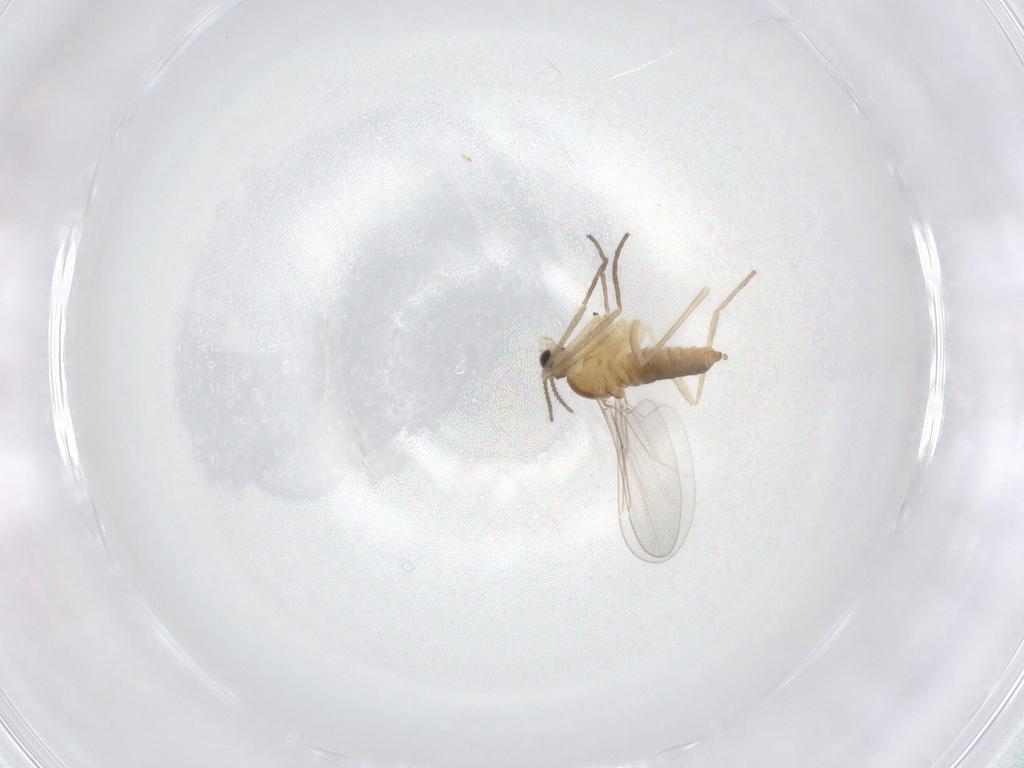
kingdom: Animalia
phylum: Arthropoda
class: Insecta
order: Diptera
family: Cecidomyiidae
